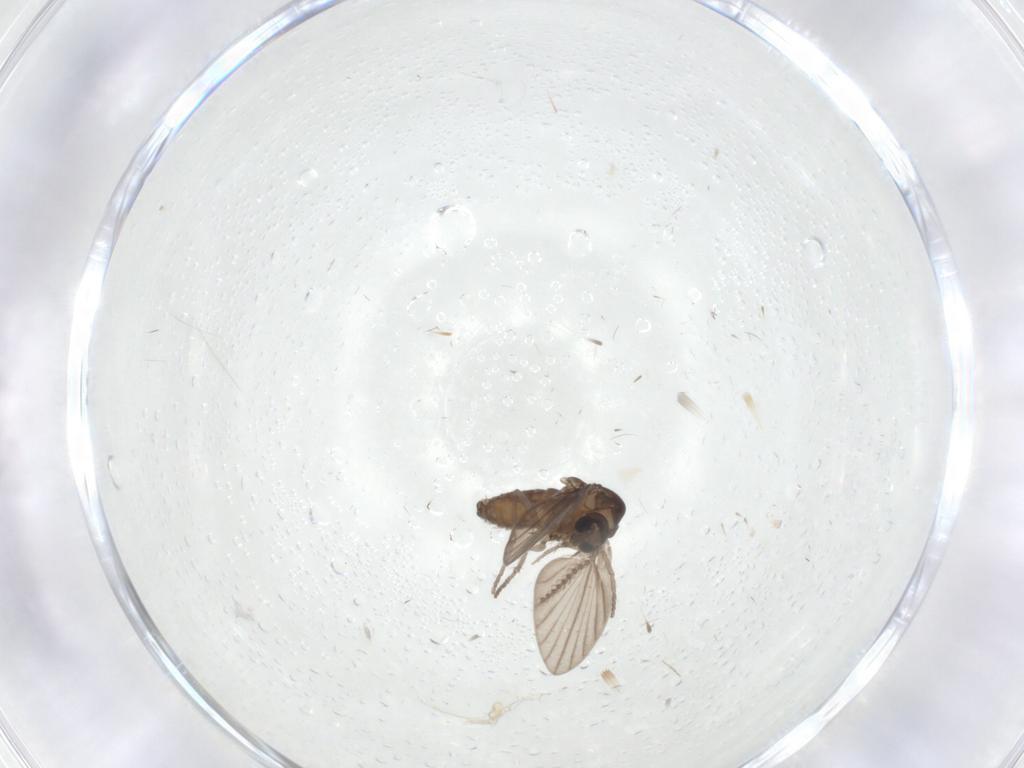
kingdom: Animalia
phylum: Arthropoda
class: Insecta
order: Diptera
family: Psychodidae
